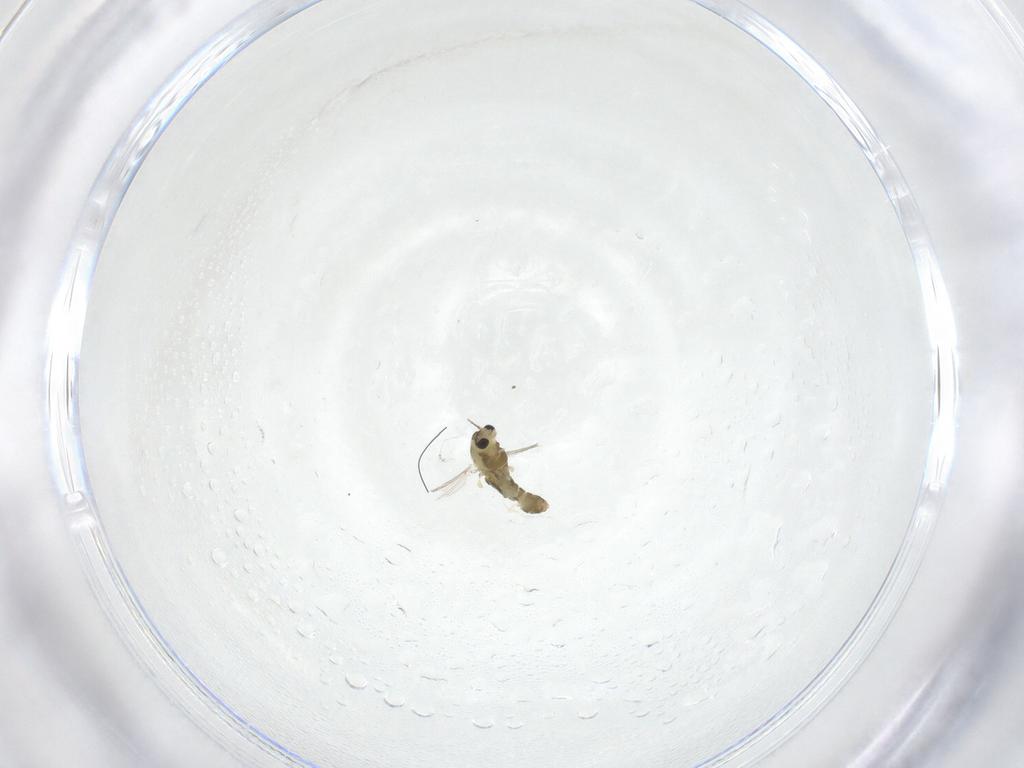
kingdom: Animalia
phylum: Arthropoda
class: Insecta
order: Diptera
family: Chironomidae
